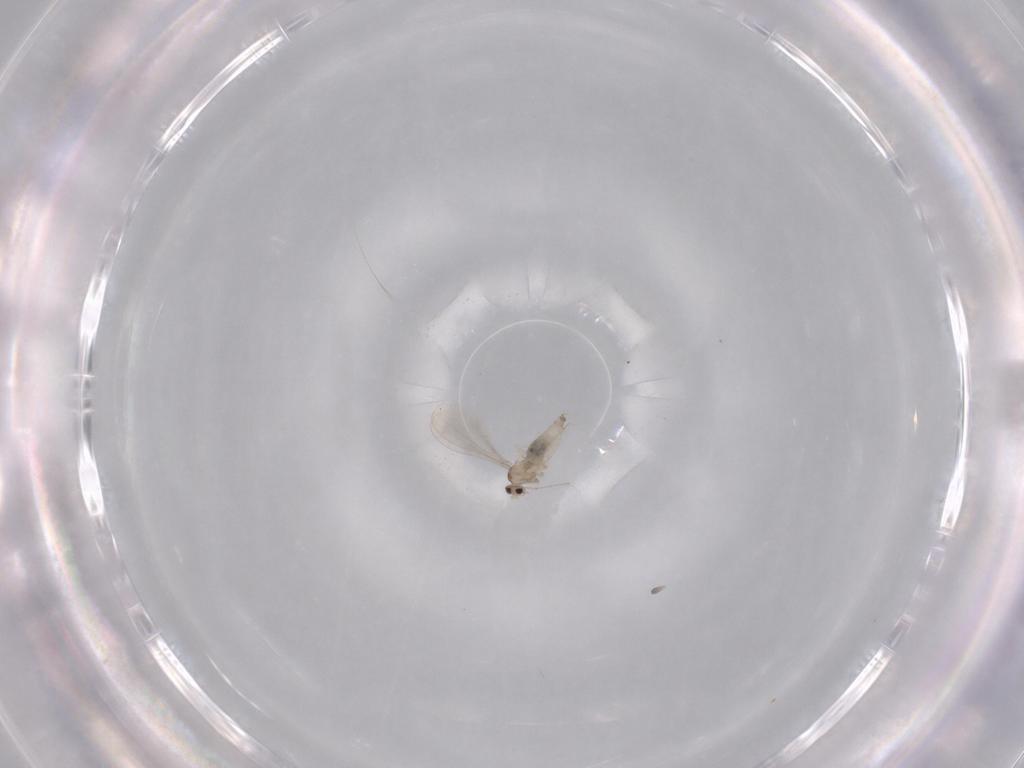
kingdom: Animalia
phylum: Arthropoda
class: Insecta
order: Diptera
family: Cecidomyiidae
